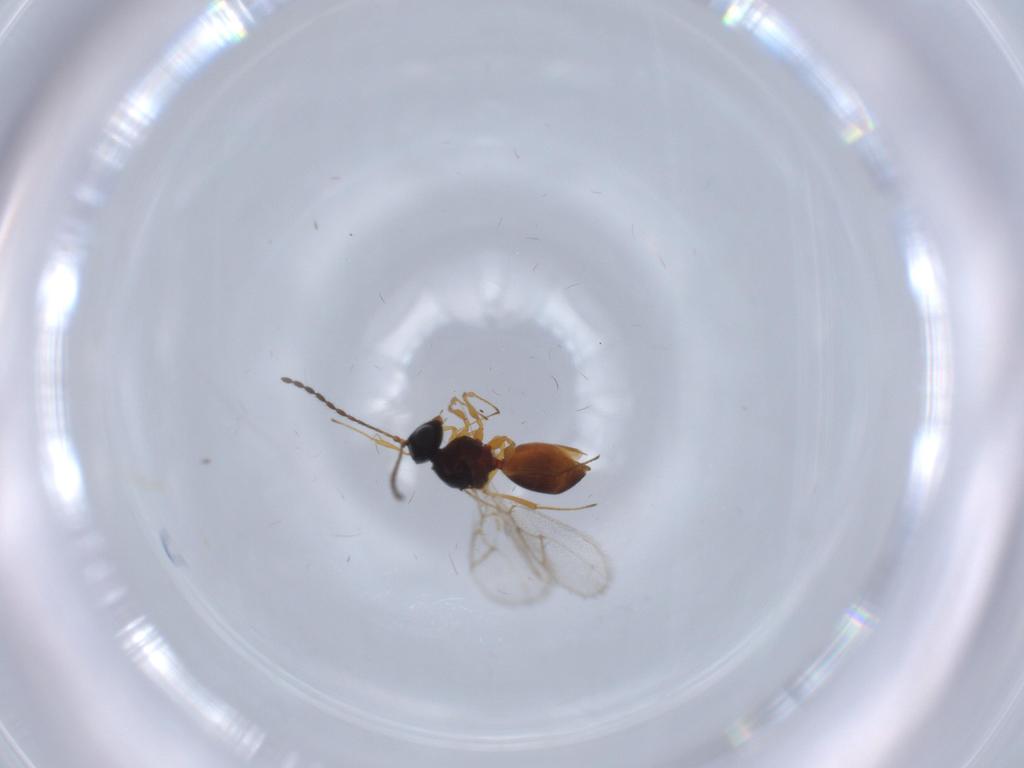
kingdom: Animalia
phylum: Arthropoda
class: Insecta
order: Hymenoptera
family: Figitidae
